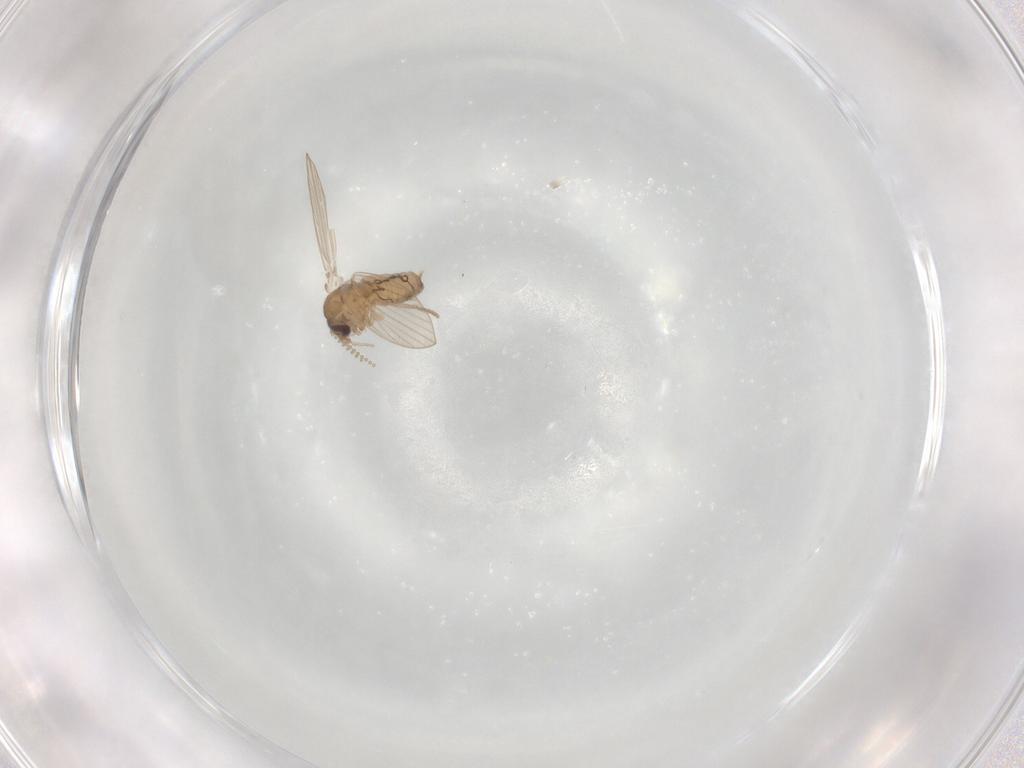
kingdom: Animalia
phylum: Arthropoda
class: Insecta
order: Diptera
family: Psychodidae
